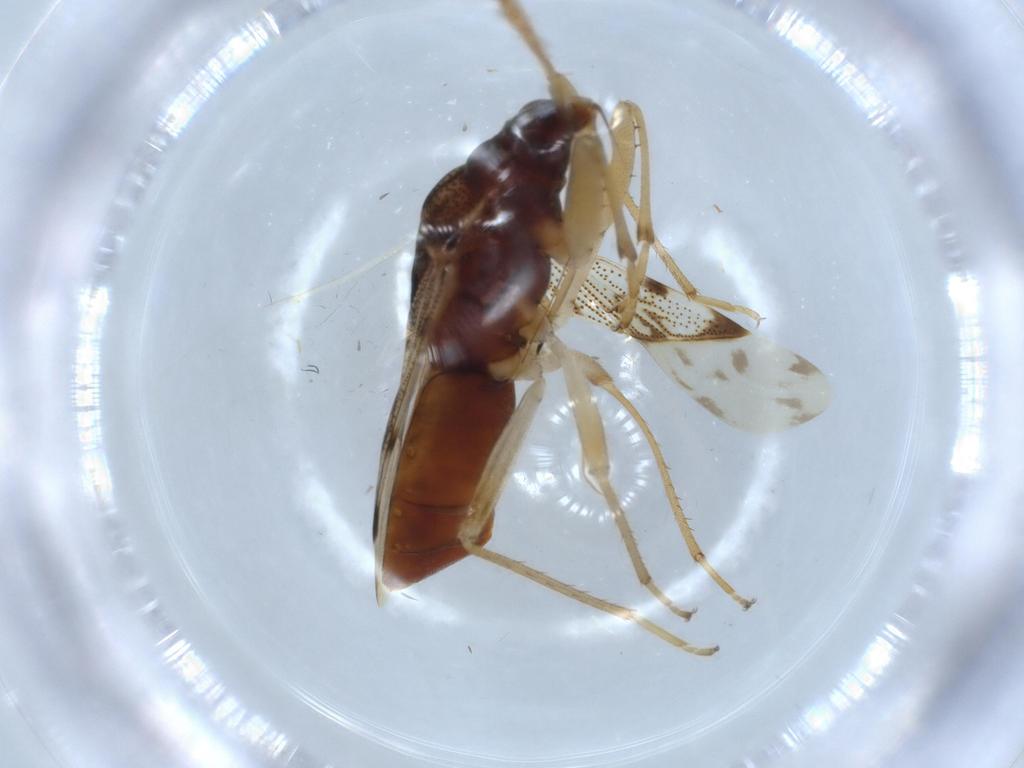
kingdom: Animalia
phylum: Arthropoda
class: Insecta
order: Hemiptera
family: Rhyparochromidae
